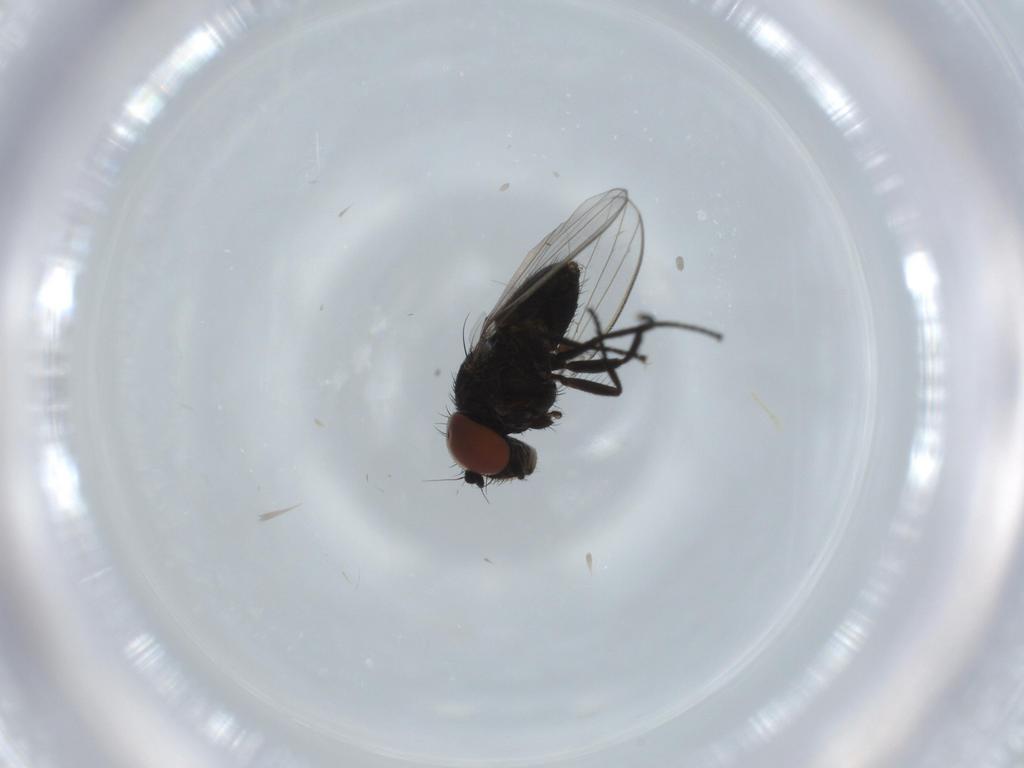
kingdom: Animalia
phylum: Arthropoda
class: Insecta
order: Diptera
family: Milichiidae
